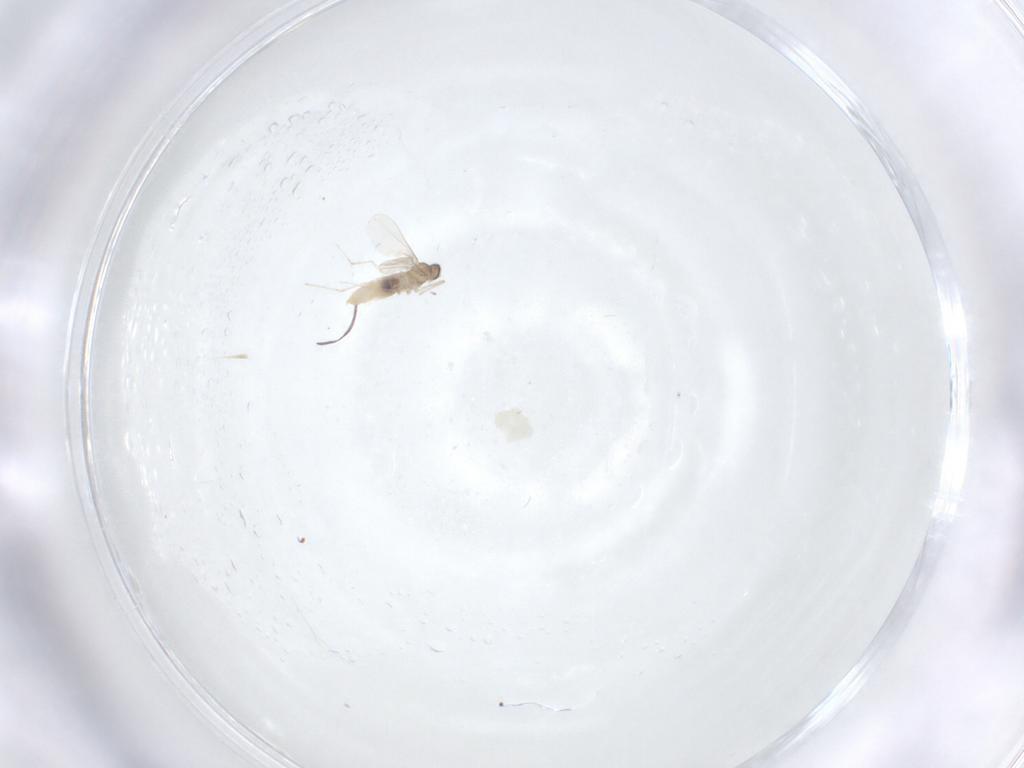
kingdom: Animalia
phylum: Arthropoda
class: Insecta
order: Diptera
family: Cecidomyiidae
